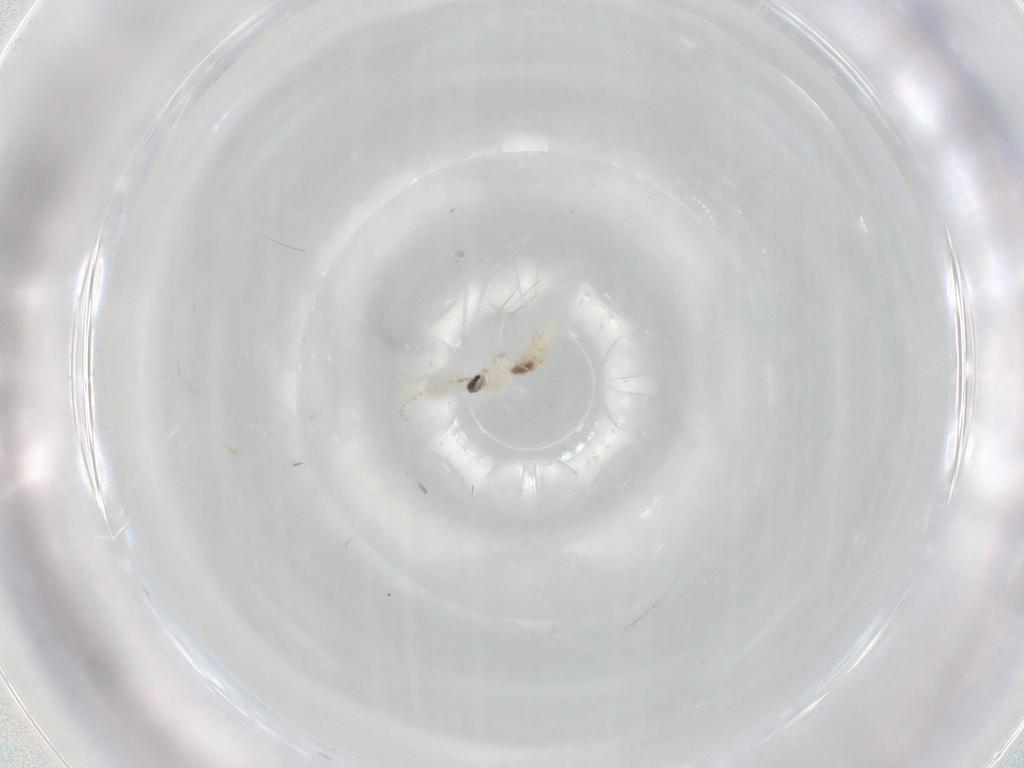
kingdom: Animalia
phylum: Arthropoda
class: Insecta
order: Diptera
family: Cecidomyiidae
